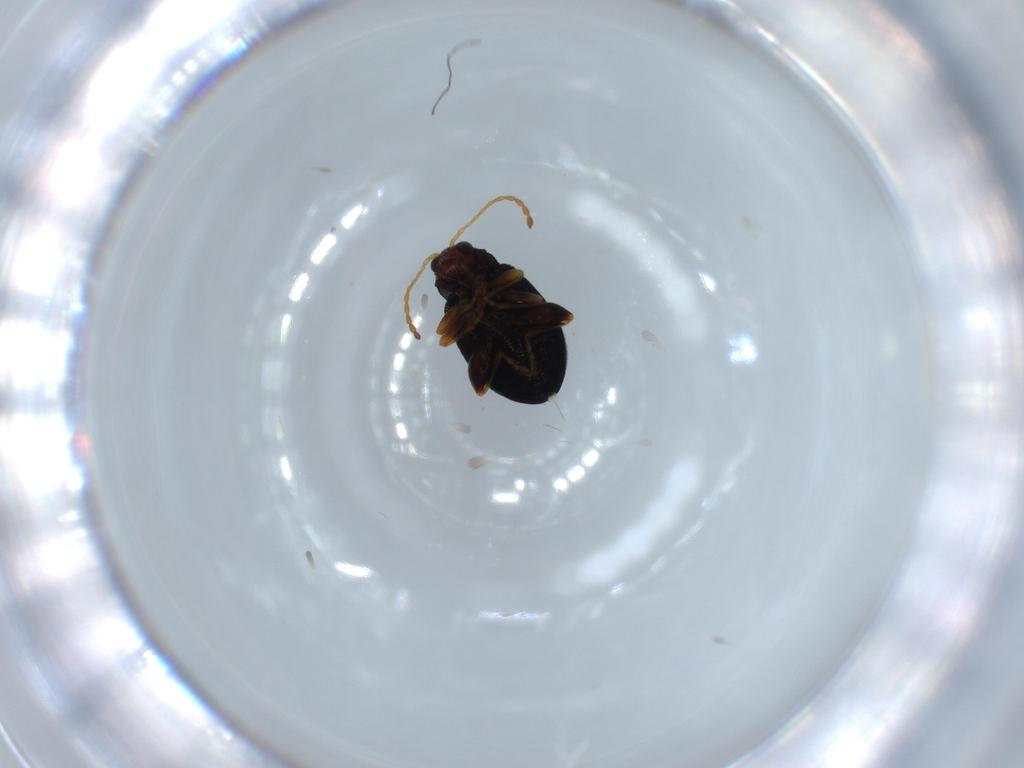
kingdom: Animalia
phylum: Arthropoda
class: Insecta
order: Coleoptera
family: Chrysomelidae
